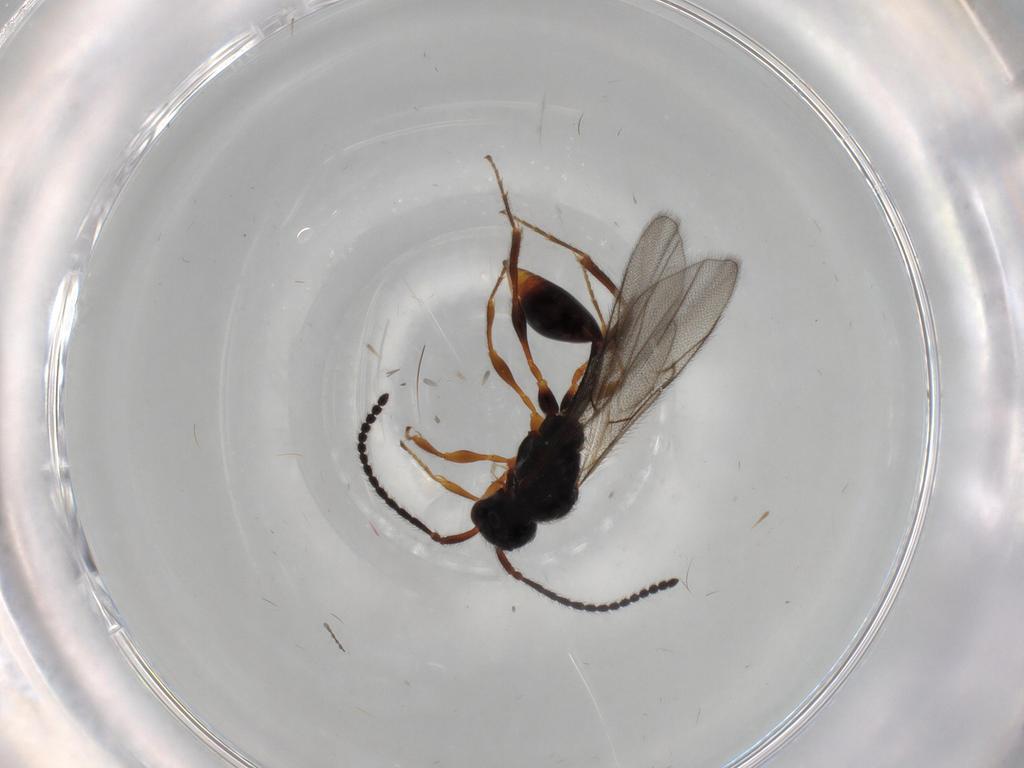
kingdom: Animalia
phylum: Arthropoda
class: Insecta
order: Hymenoptera
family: Diapriidae
